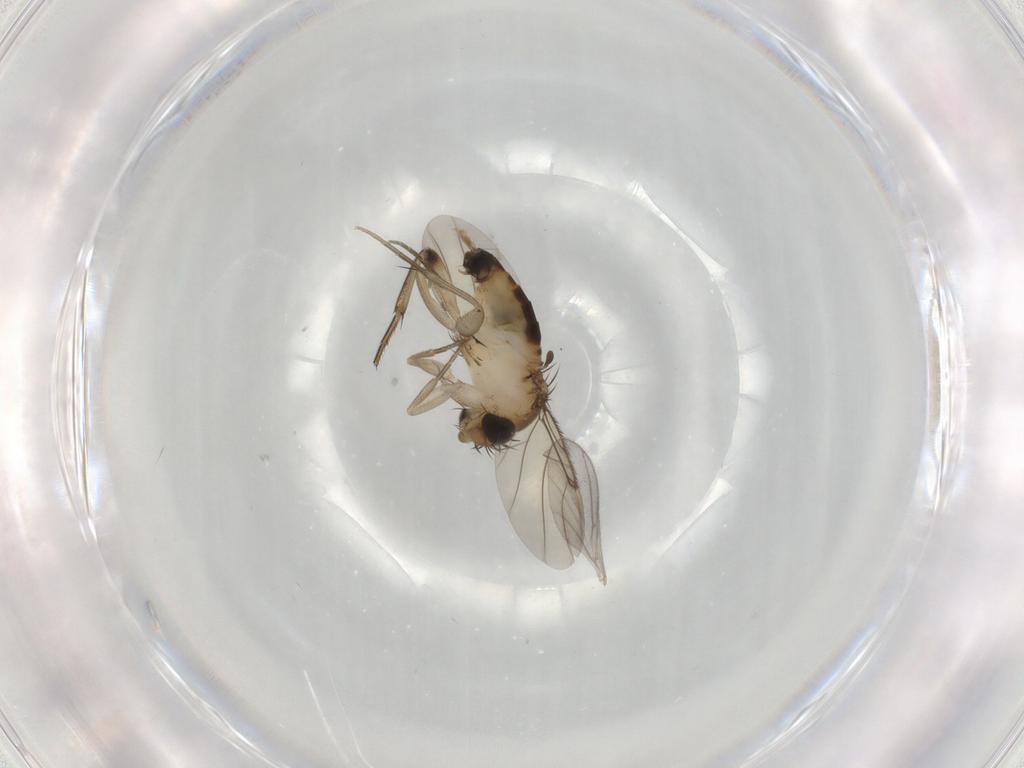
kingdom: Animalia
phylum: Arthropoda
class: Insecta
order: Diptera
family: Phoridae
